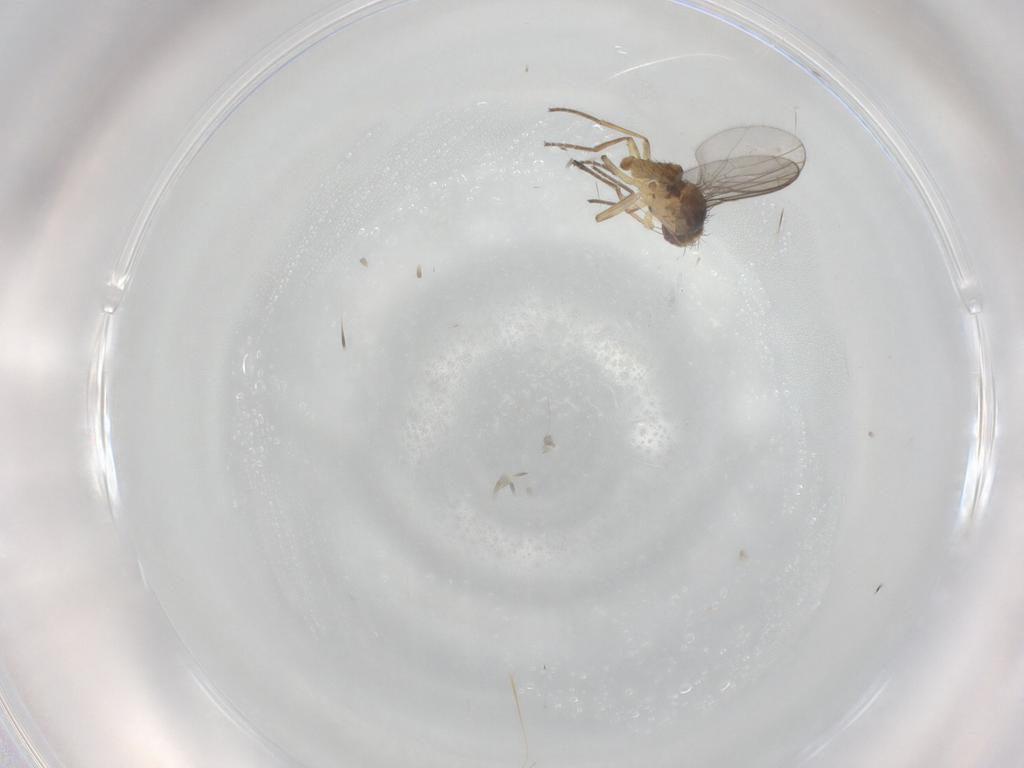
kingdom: Animalia
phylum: Arthropoda
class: Insecta
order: Diptera
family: Agromyzidae
